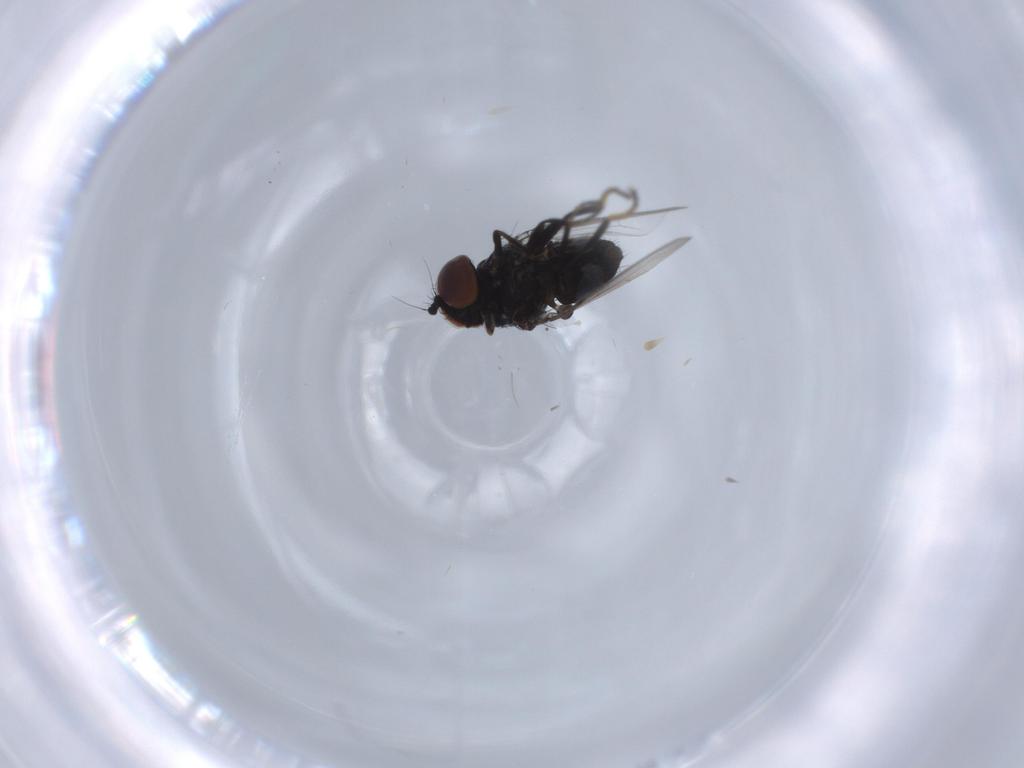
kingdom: Animalia
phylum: Arthropoda
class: Insecta
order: Diptera
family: Milichiidae
